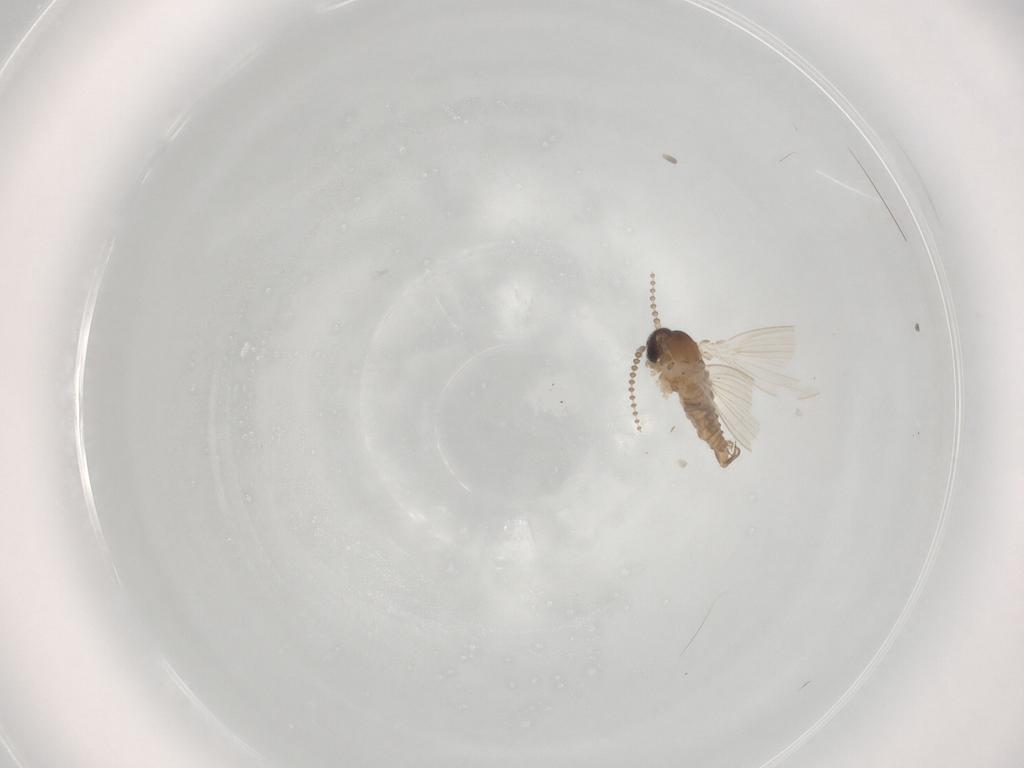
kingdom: Animalia
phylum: Arthropoda
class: Insecta
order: Diptera
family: Psychodidae
